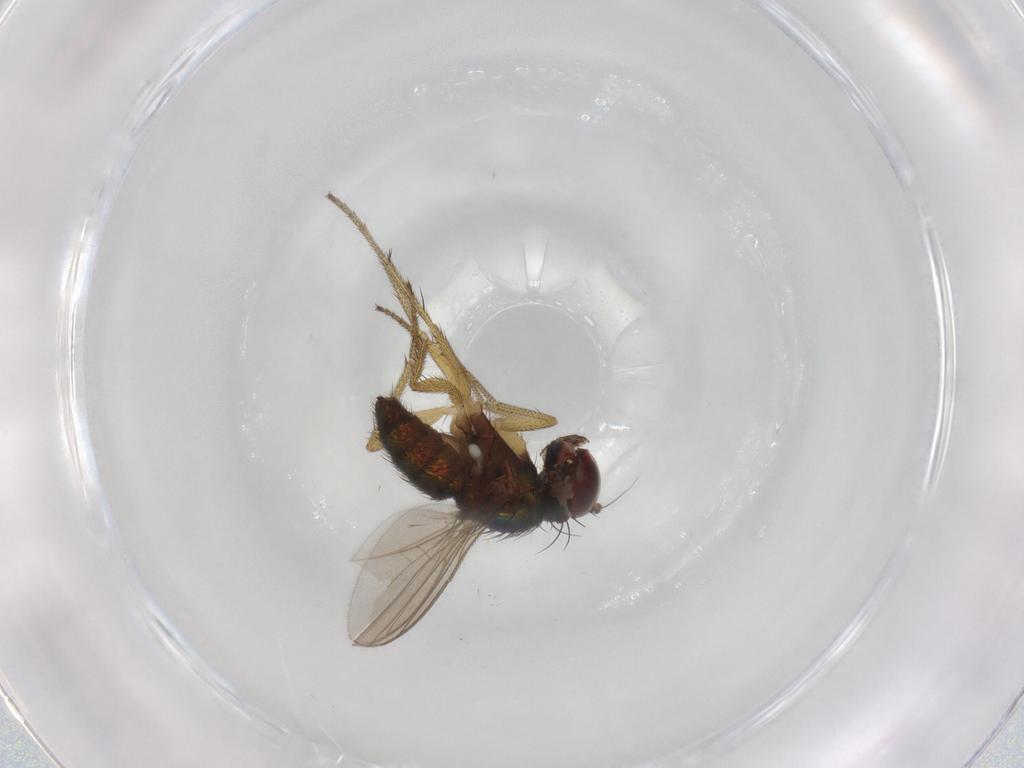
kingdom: Animalia
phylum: Arthropoda
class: Insecta
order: Diptera
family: Dolichopodidae
